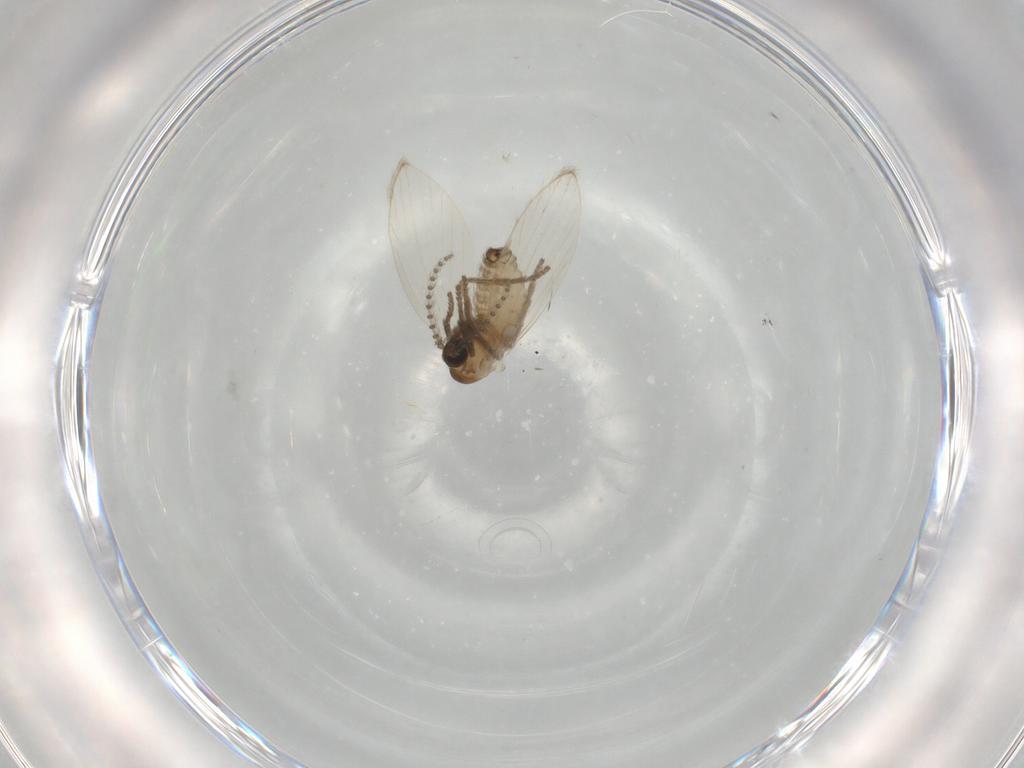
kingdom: Animalia
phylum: Arthropoda
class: Insecta
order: Diptera
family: Psychodidae
